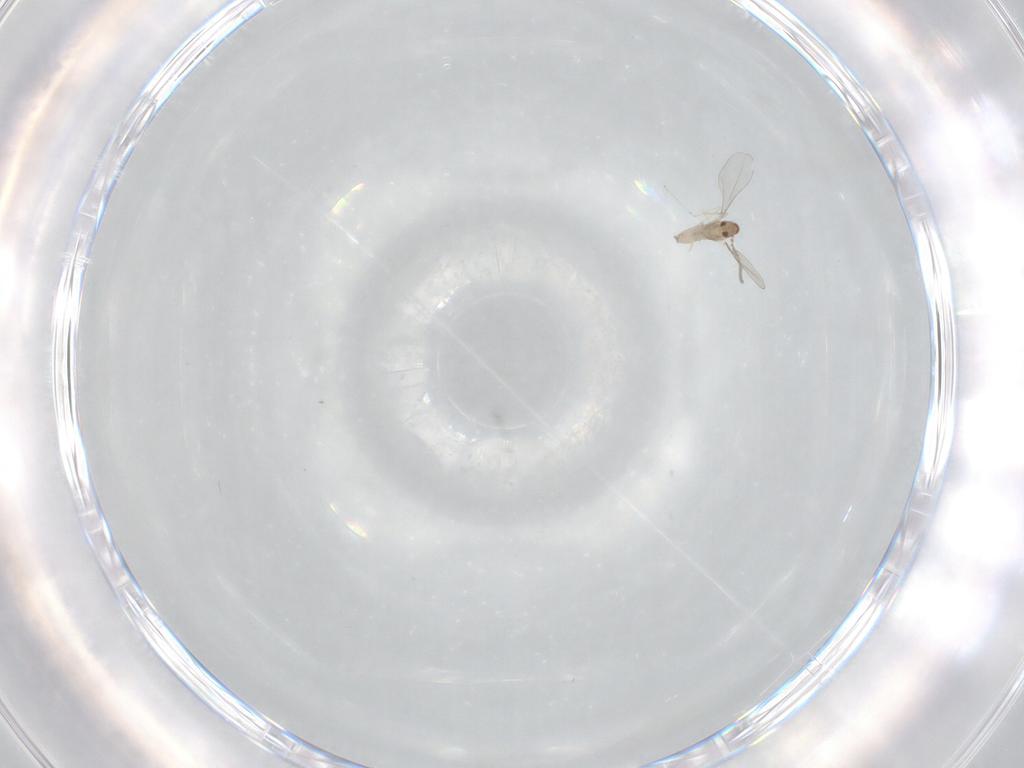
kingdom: Animalia
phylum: Arthropoda
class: Insecta
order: Diptera
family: Cecidomyiidae
